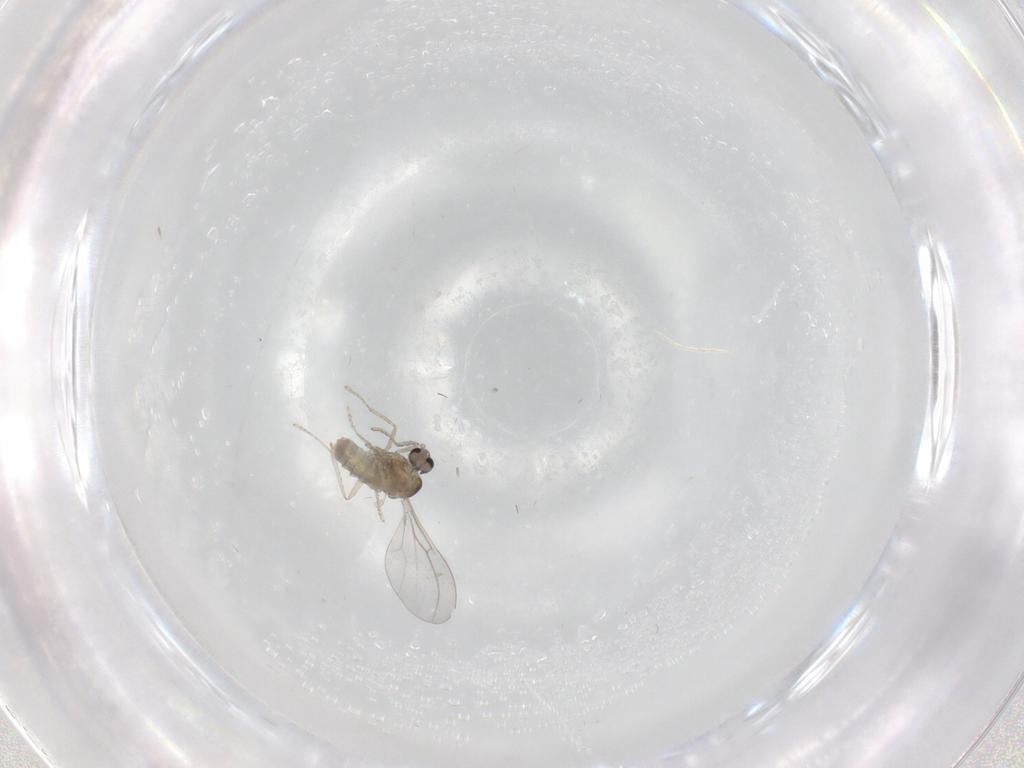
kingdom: Animalia
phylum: Arthropoda
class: Insecta
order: Diptera
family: Cecidomyiidae
